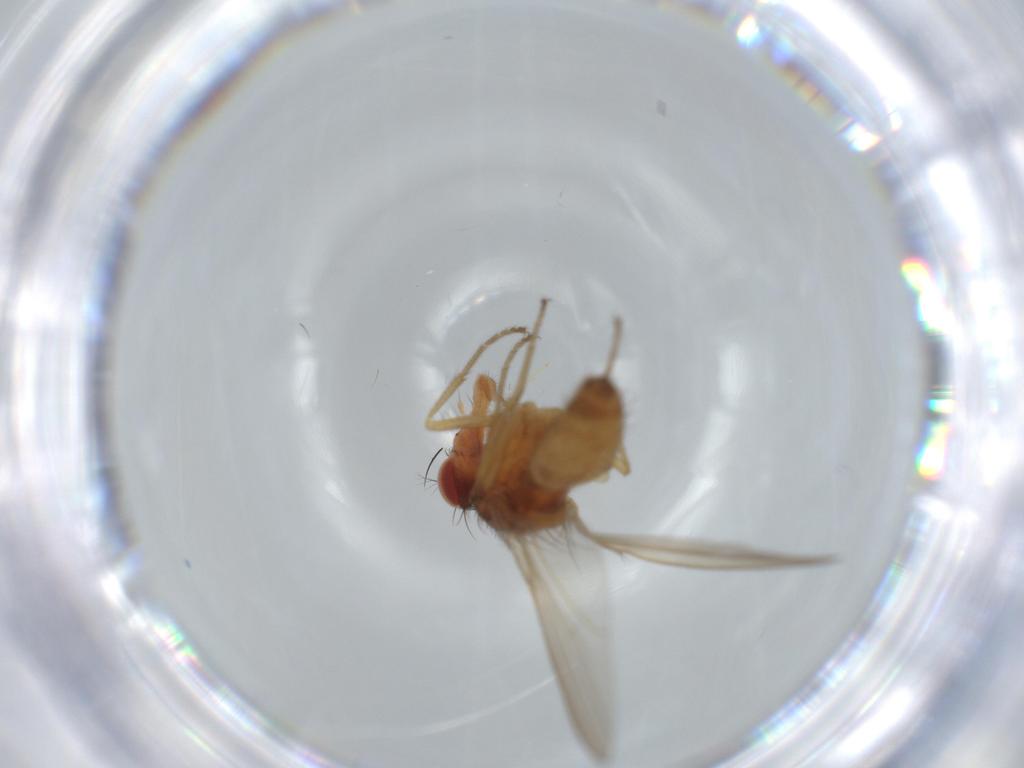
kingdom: Animalia
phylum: Arthropoda
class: Insecta
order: Diptera
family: Drosophilidae
